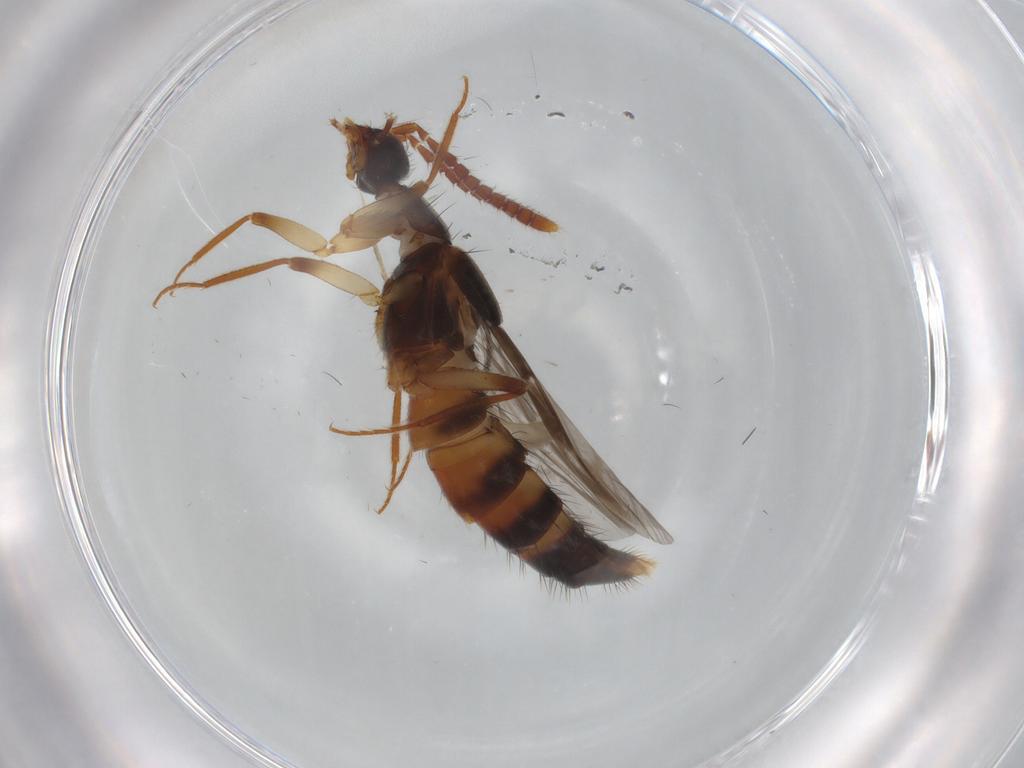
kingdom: Animalia
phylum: Arthropoda
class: Insecta
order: Coleoptera
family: Staphylinidae
